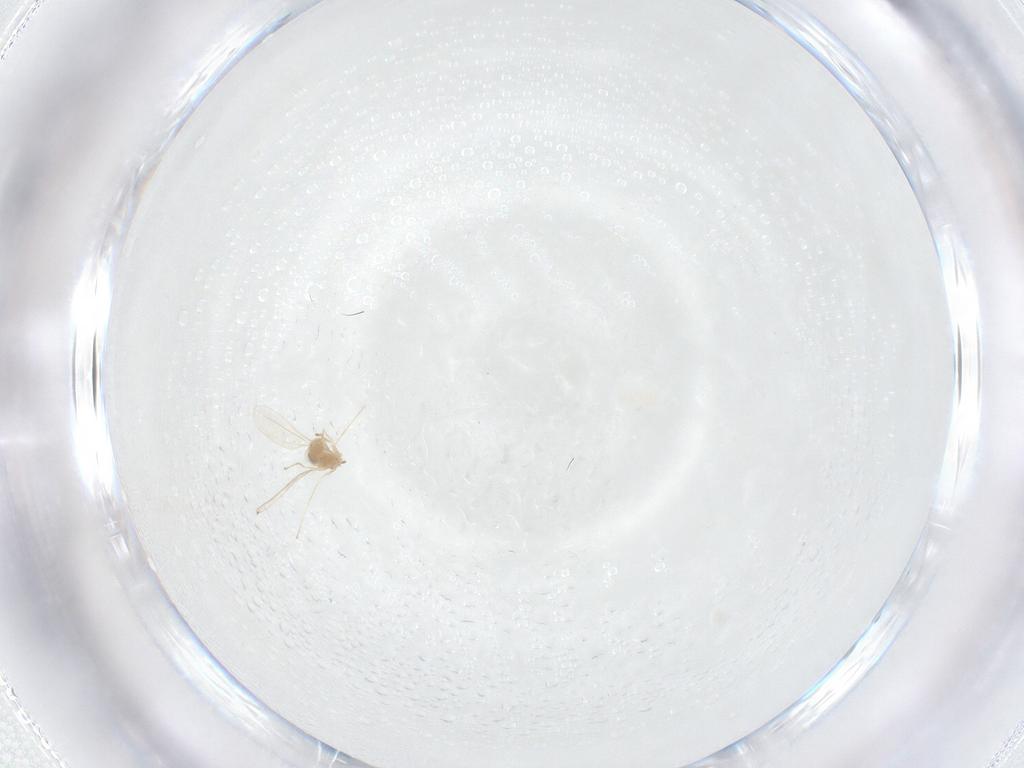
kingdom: Animalia
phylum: Arthropoda
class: Insecta
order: Diptera
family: Cecidomyiidae
